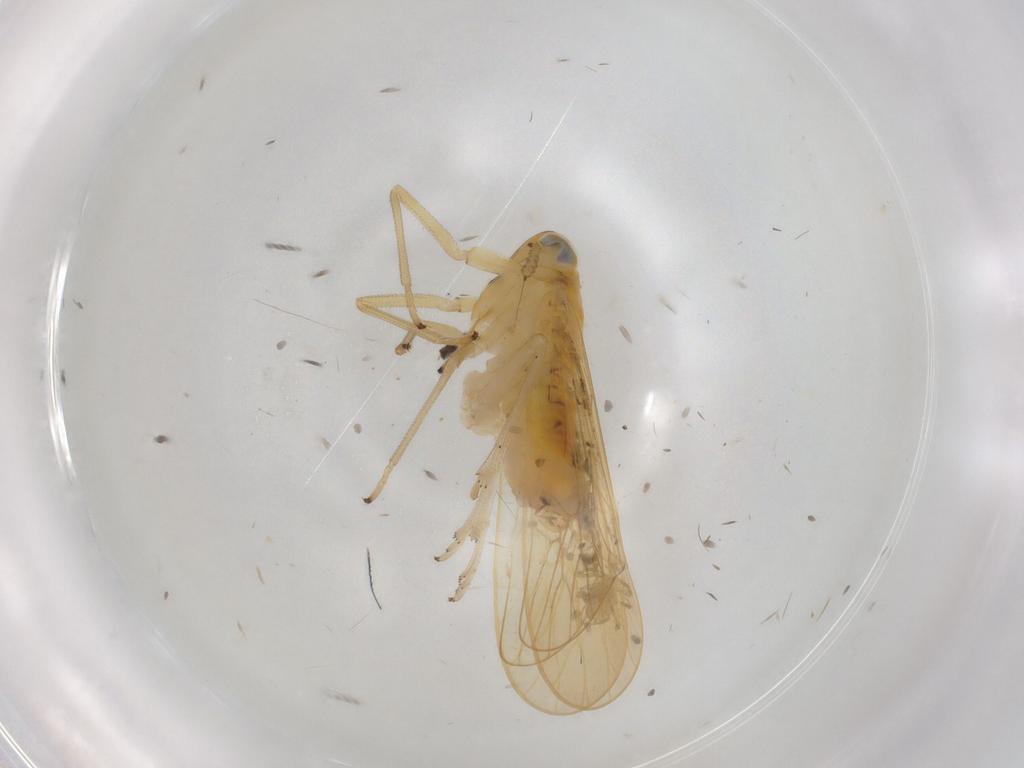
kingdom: Animalia
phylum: Arthropoda
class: Insecta
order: Hemiptera
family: Delphacidae
